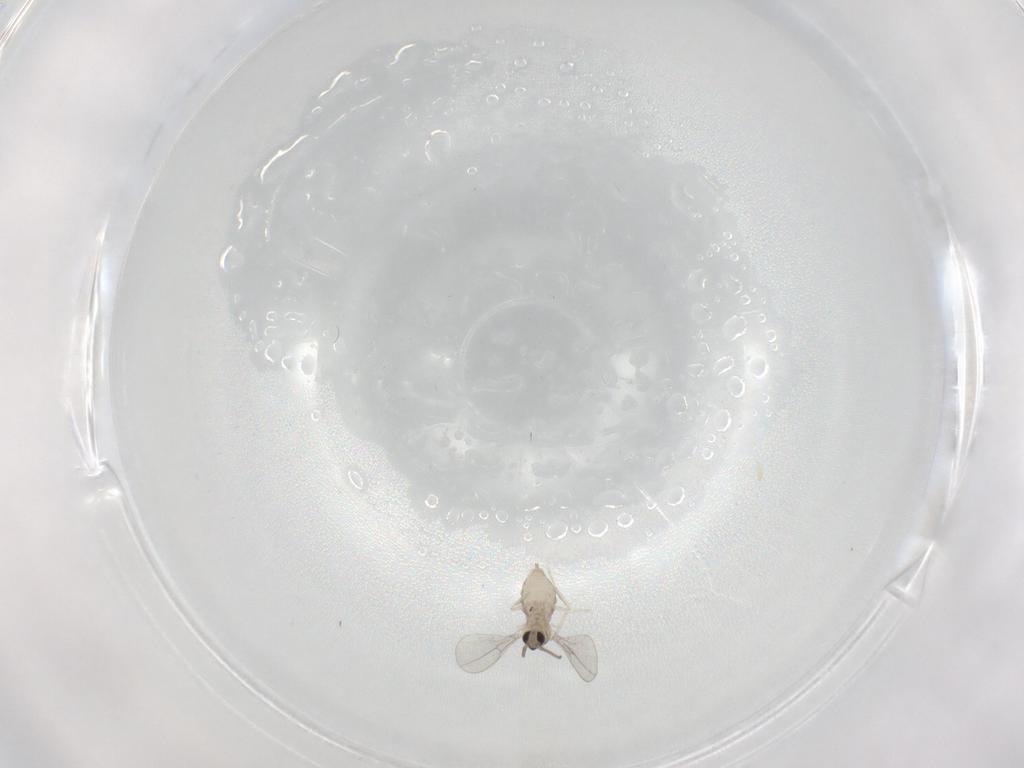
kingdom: Animalia
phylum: Arthropoda
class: Insecta
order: Diptera
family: Cecidomyiidae
